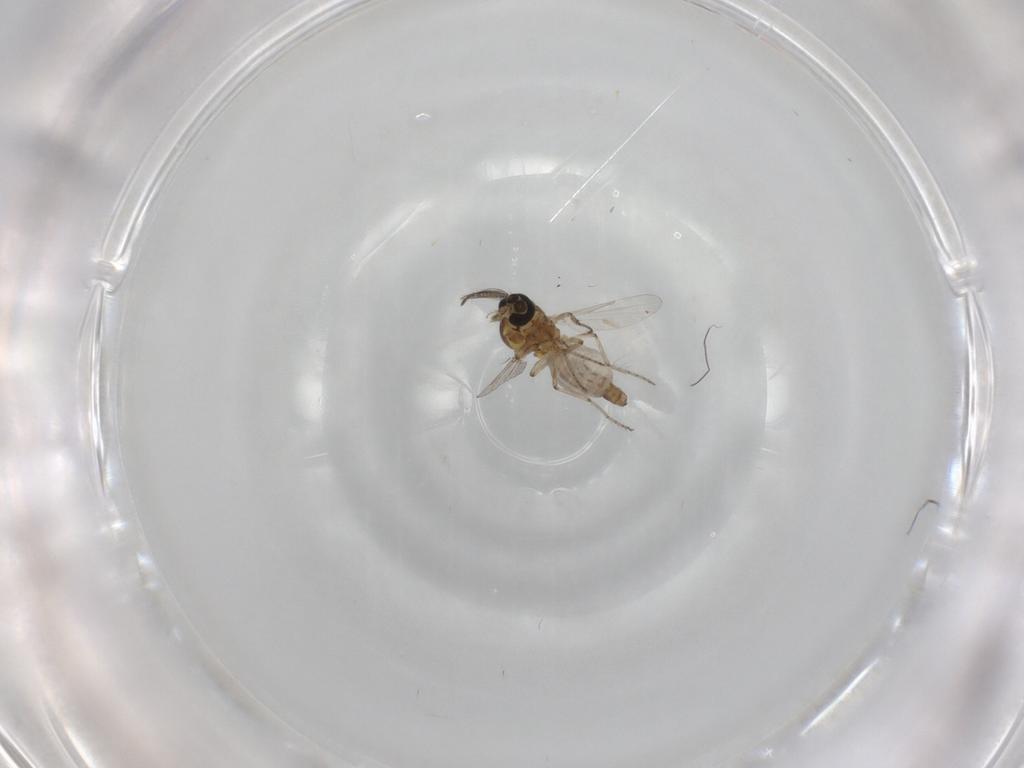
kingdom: Animalia
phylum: Arthropoda
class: Insecta
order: Diptera
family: Ceratopogonidae
